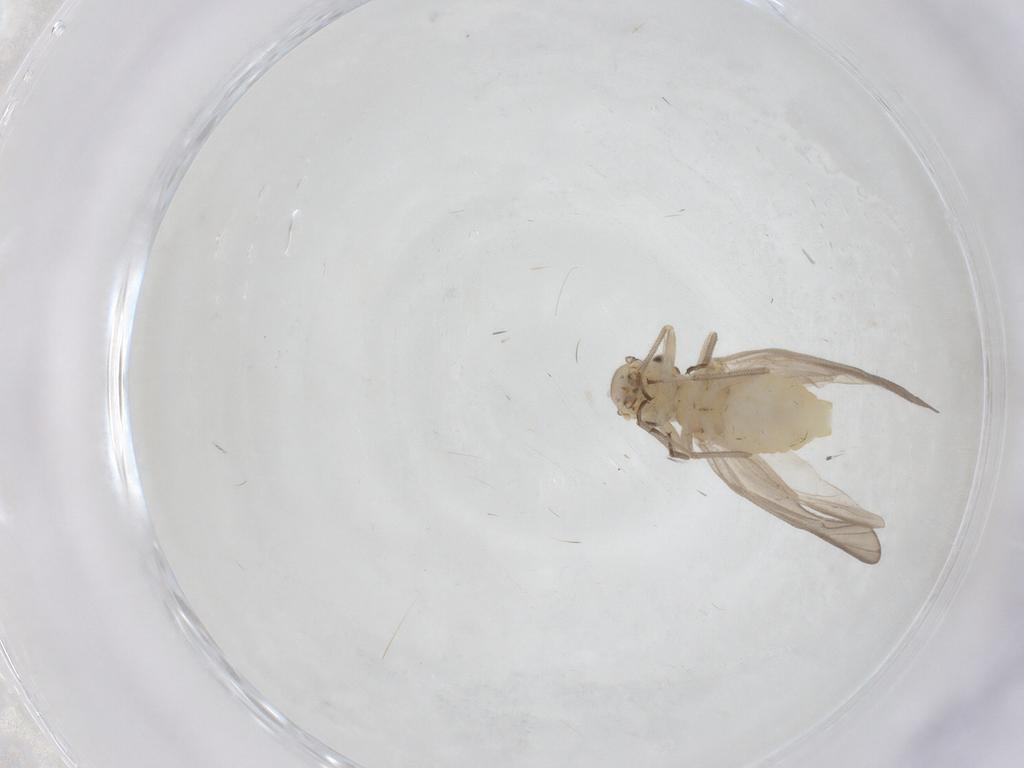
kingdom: Animalia
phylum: Arthropoda
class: Insecta
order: Psocodea
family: Caeciliusidae
